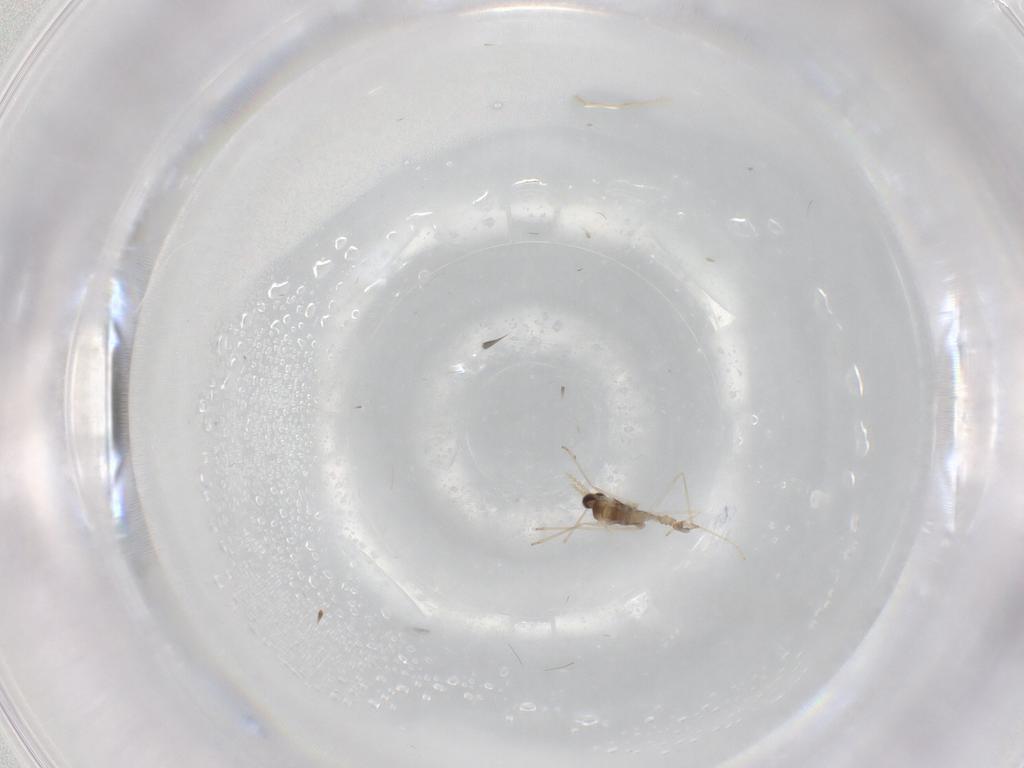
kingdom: Animalia
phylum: Arthropoda
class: Insecta
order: Diptera
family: Cecidomyiidae
